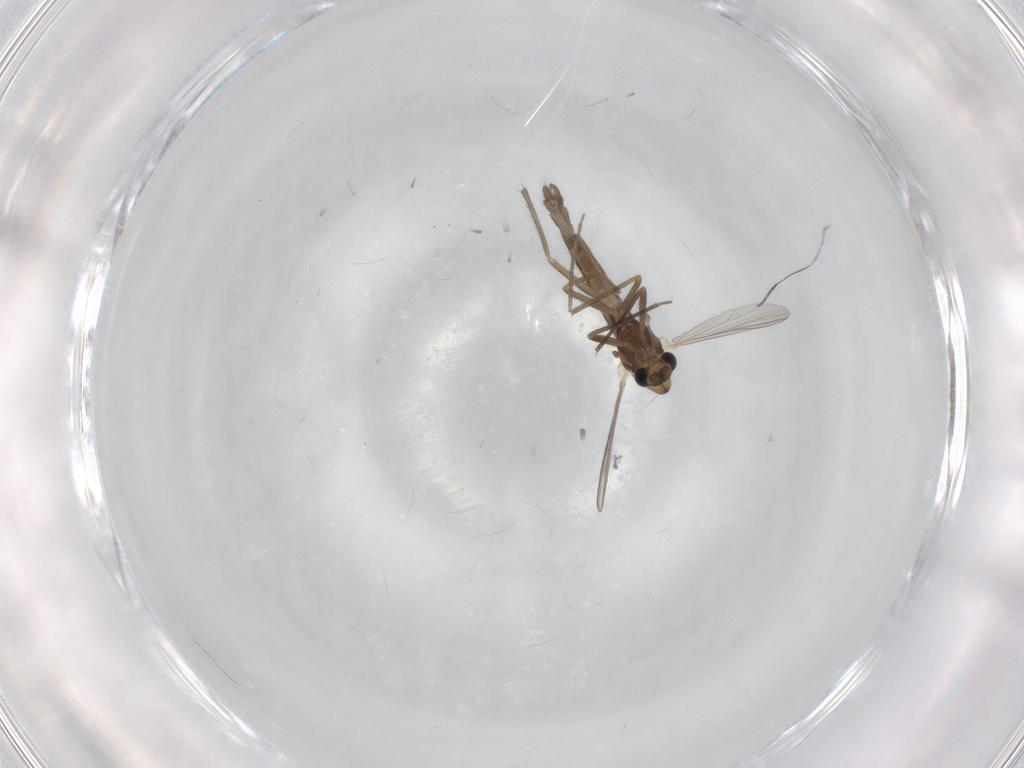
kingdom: Animalia
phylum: Arthropoda
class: Insecta
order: Diptera
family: Chironomidae
